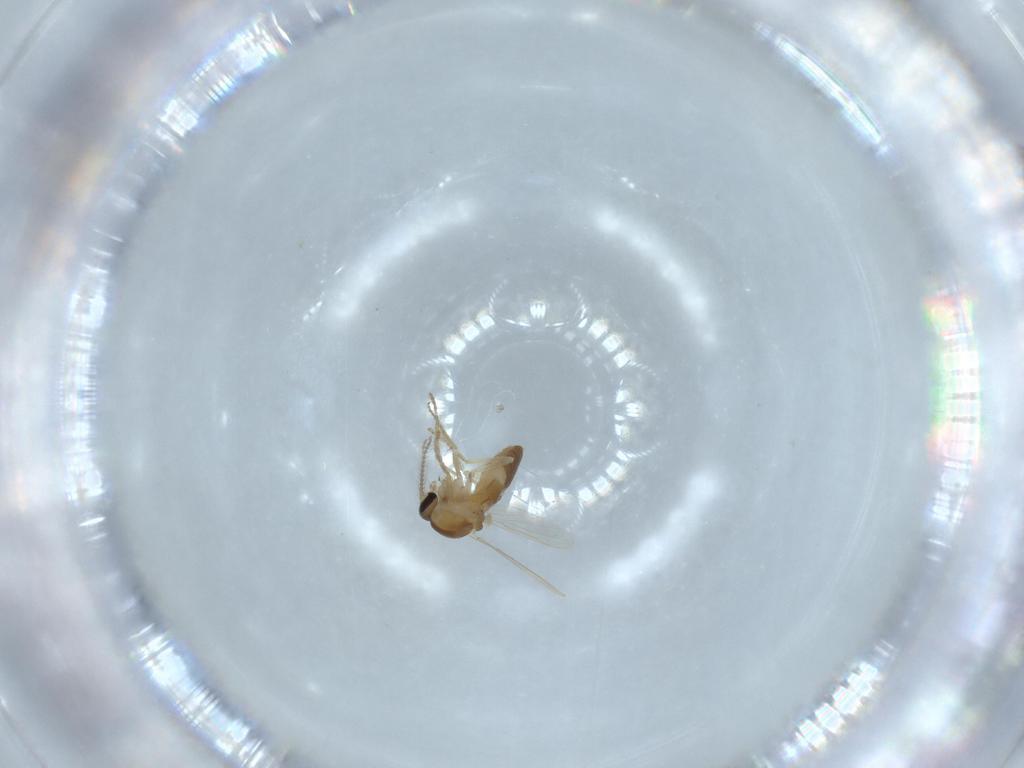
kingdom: Animalia
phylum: Arthropoda
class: Insecta
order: Diptera
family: Ceratopogonidae
